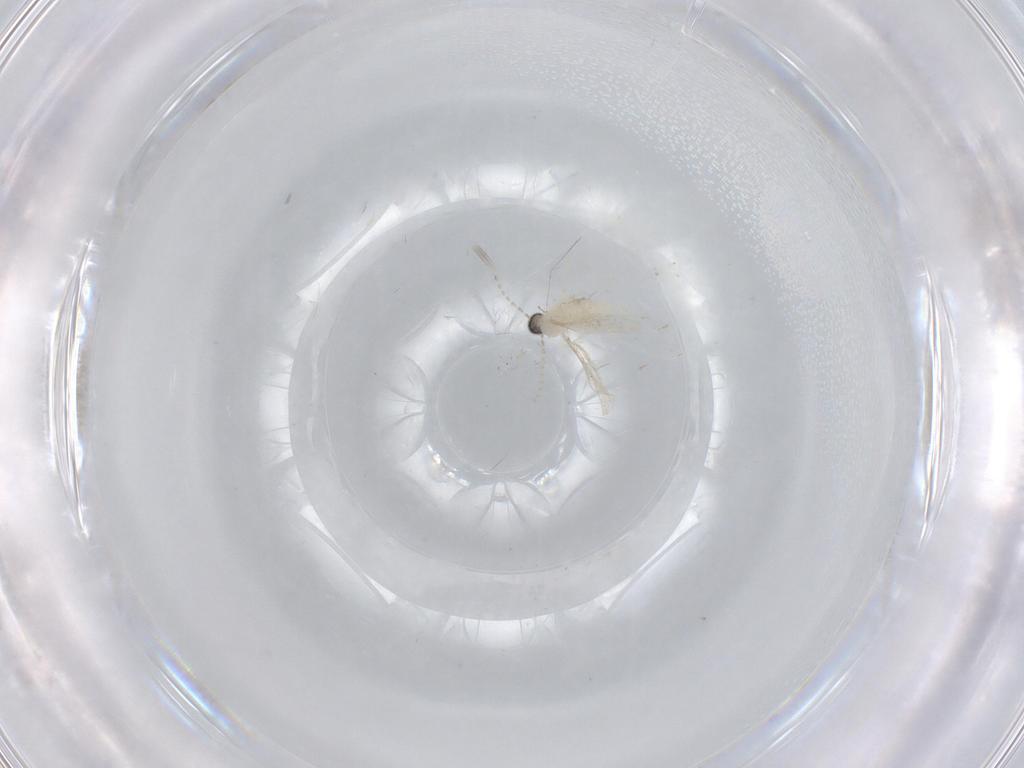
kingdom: Animalia
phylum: Arthropoda
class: Insecta
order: Diptera
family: Cecidomyiidae
